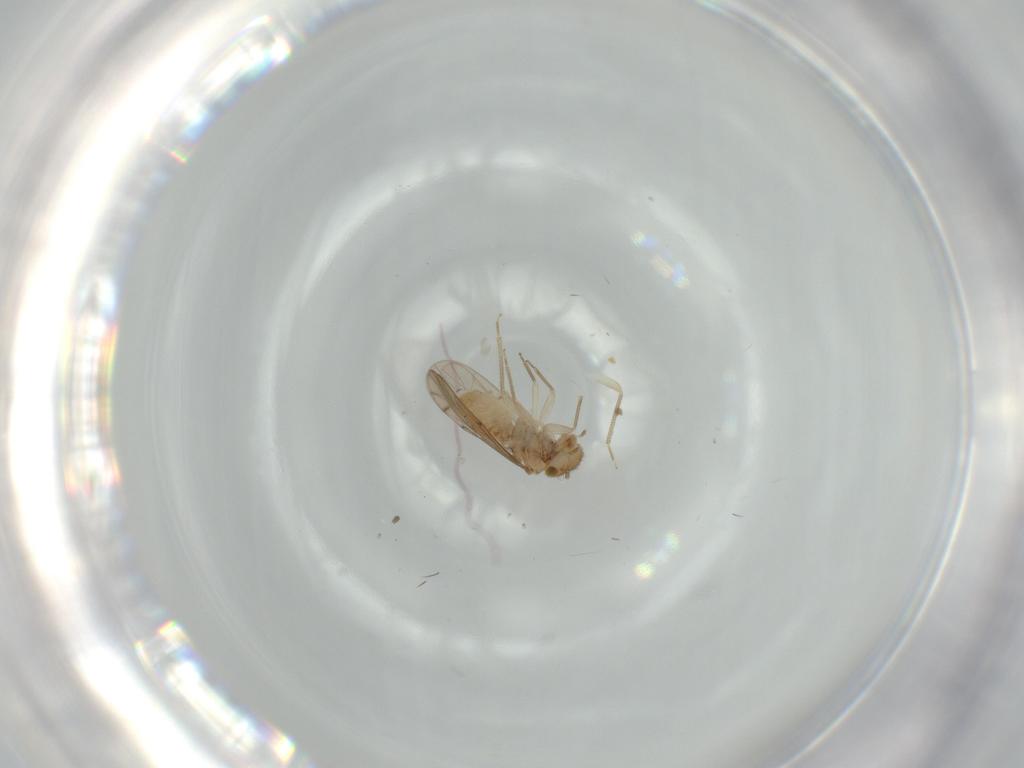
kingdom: Animalia
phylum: Arthropoda
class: Insecta
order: Psocodea
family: Ectopsocidae
